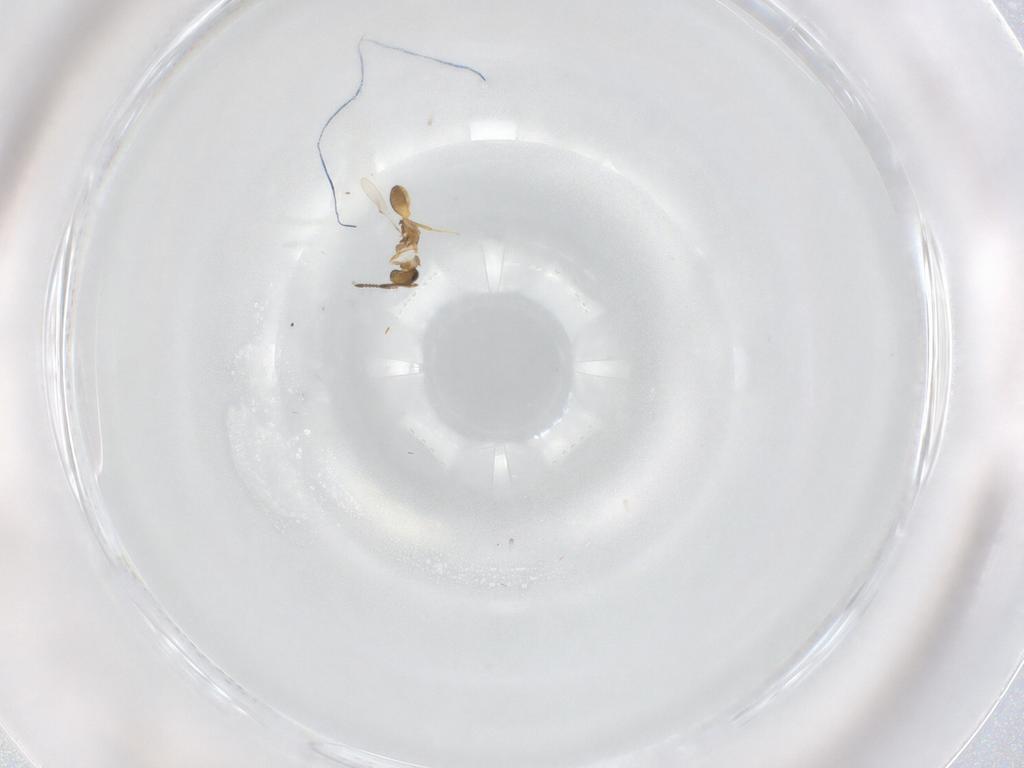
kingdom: Animalia
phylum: Arthropoda
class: Insecta
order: Hymenoptera
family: Scelionidae
